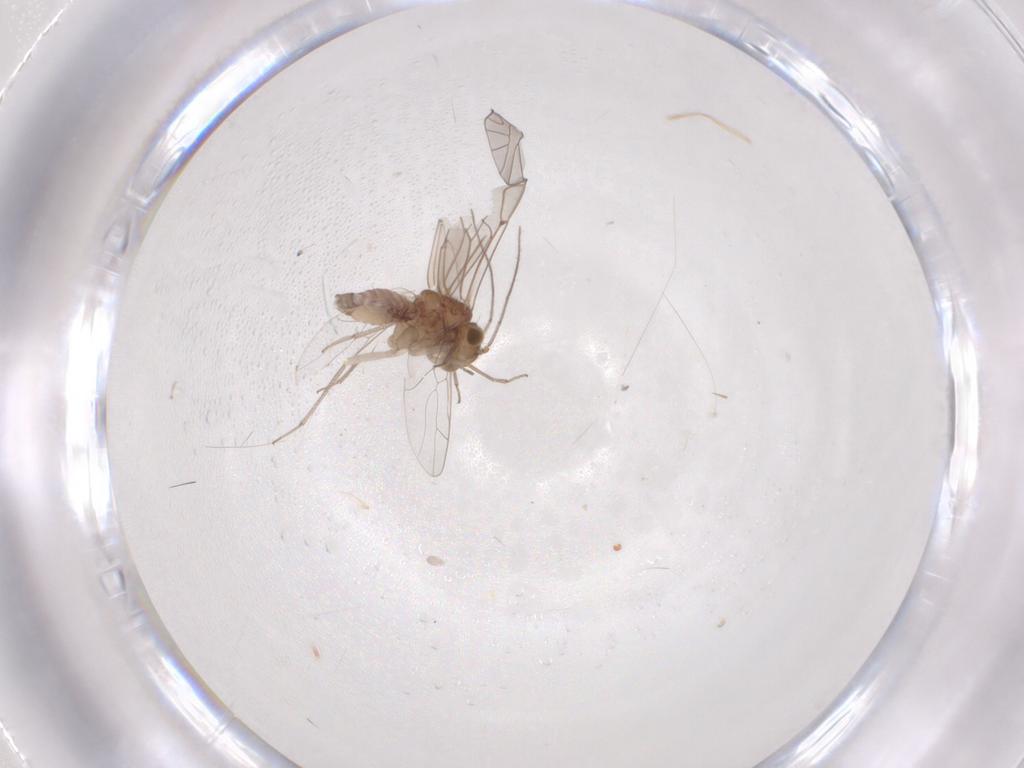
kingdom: Animalia
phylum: Arthropoda
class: Insecta
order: Psocodea
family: Lachesillidae
